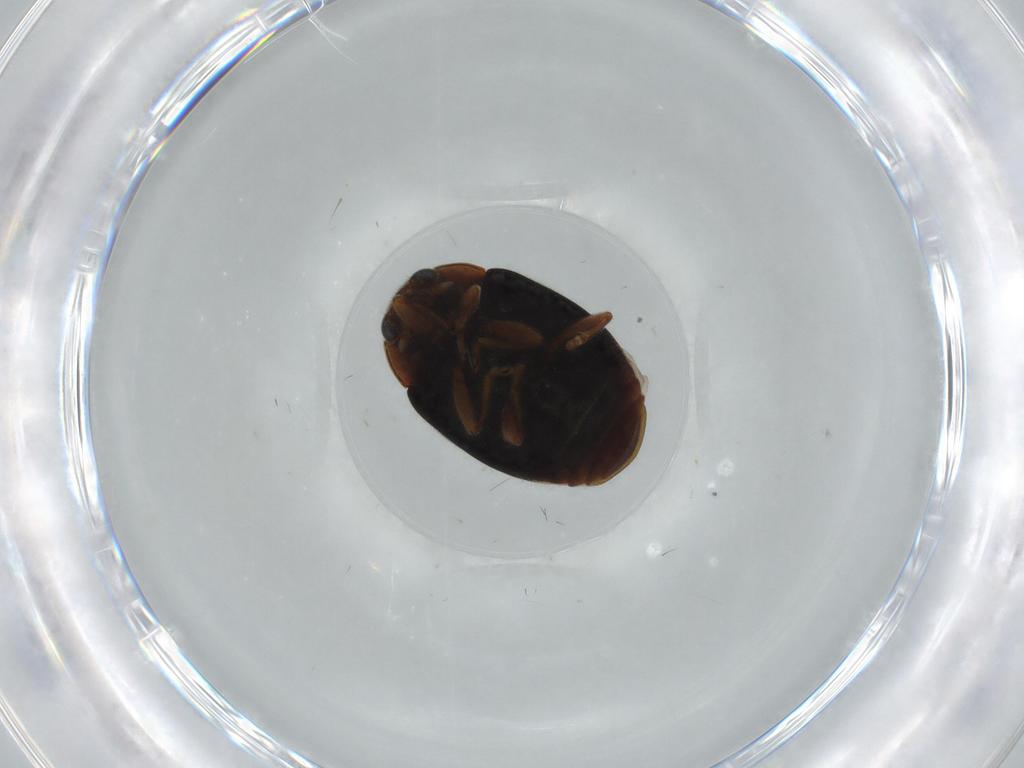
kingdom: Animalia
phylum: Arthropoda
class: Insecta
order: Coleoptera
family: Coccinellidae
